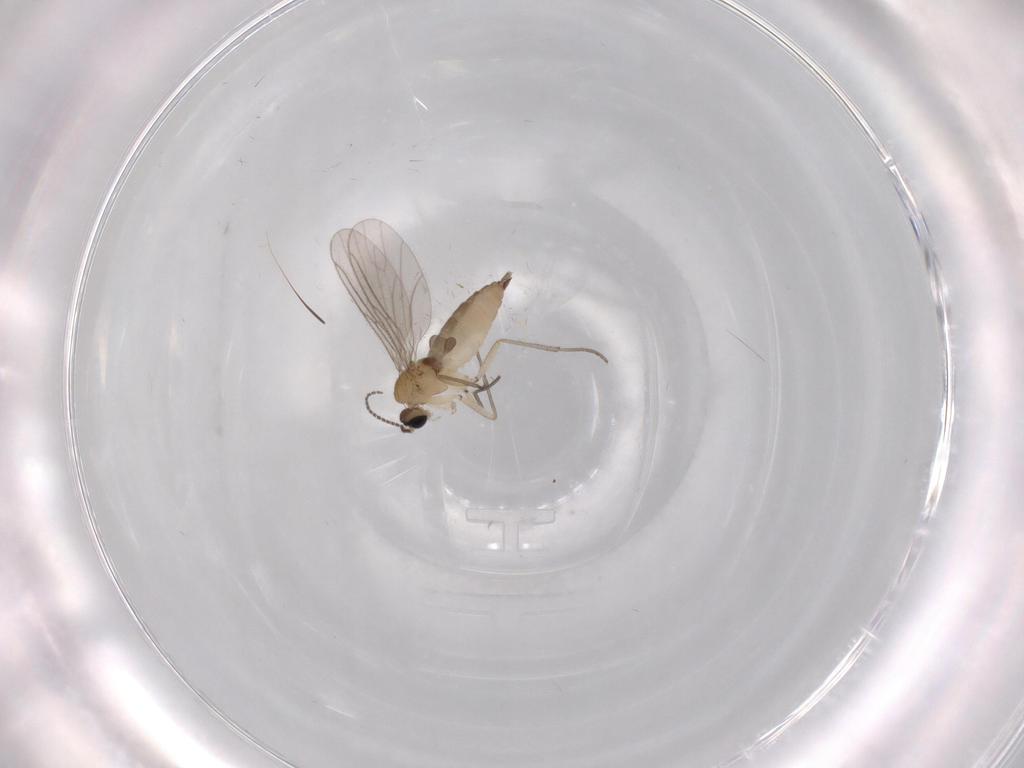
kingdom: Animalia
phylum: Arthropoda
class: Insecta
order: Diptera
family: Sciaridae
